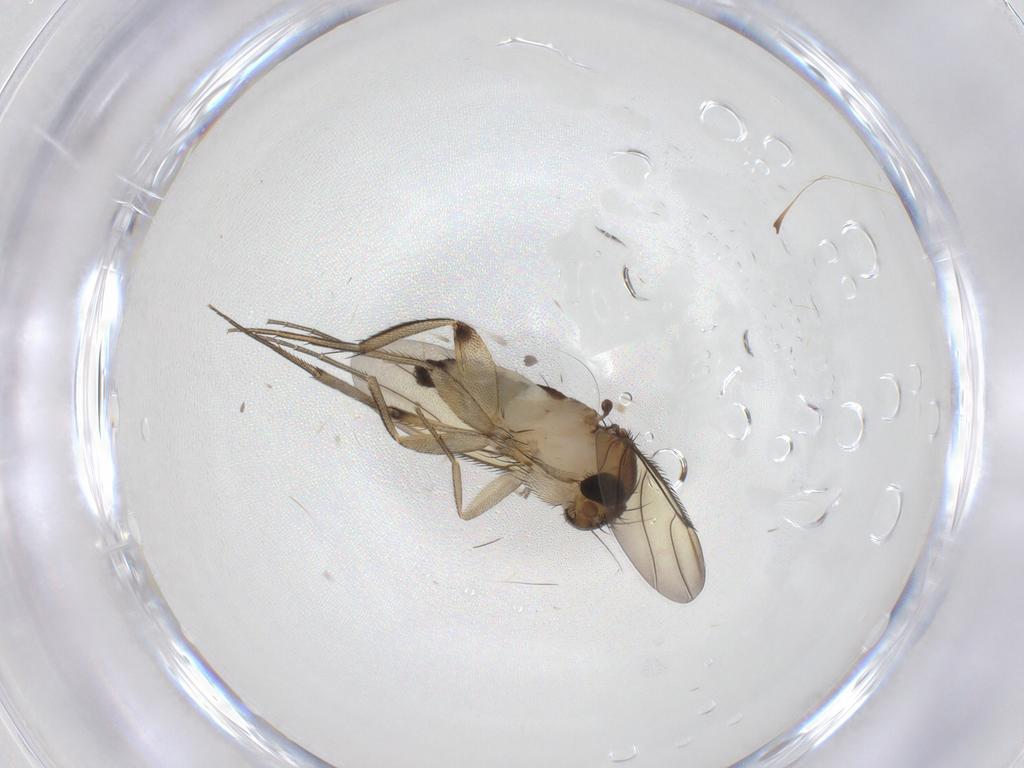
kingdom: Animalia
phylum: Arthropoda
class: Insecta
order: Diptera
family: Phoridae
